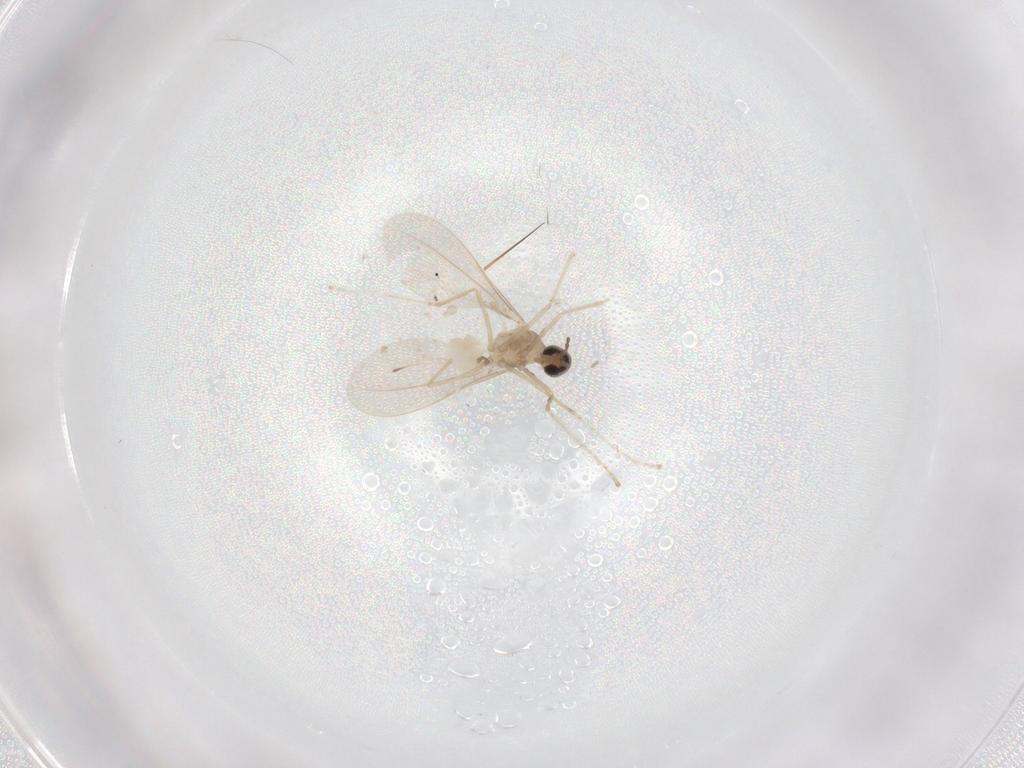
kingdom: Animalia
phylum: Arthropoda
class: Insecta
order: Diptera
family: Cecidomyiidae
